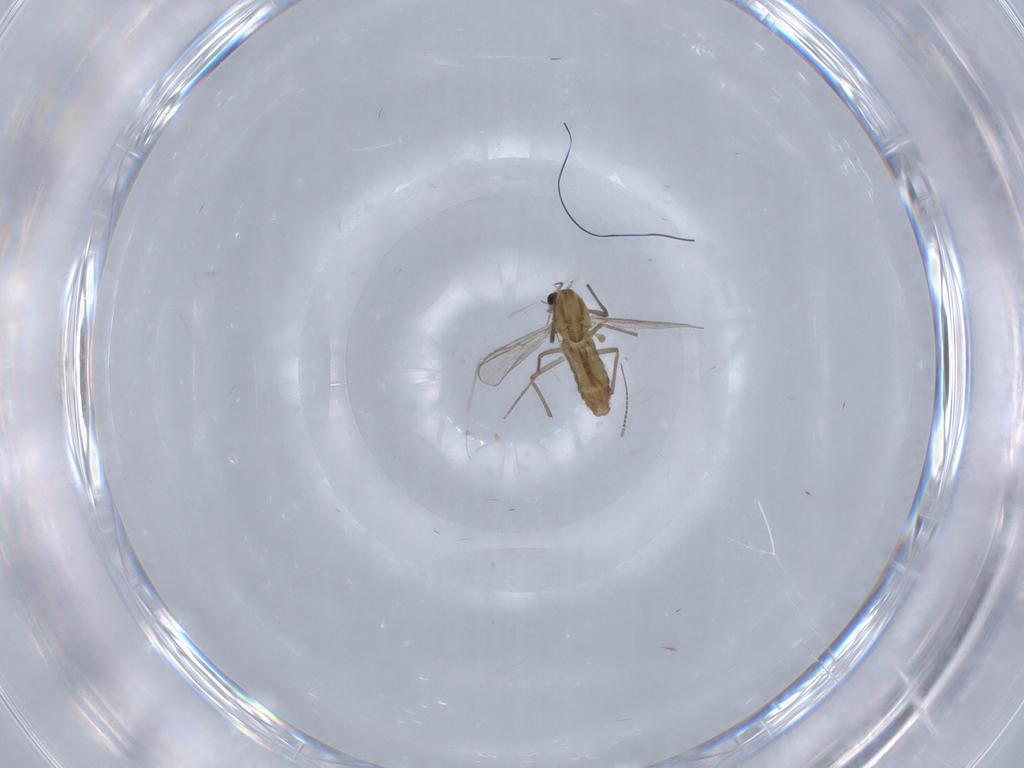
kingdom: Animalia
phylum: Arthropoda
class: Insecta
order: Diptera
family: Chironomidae
